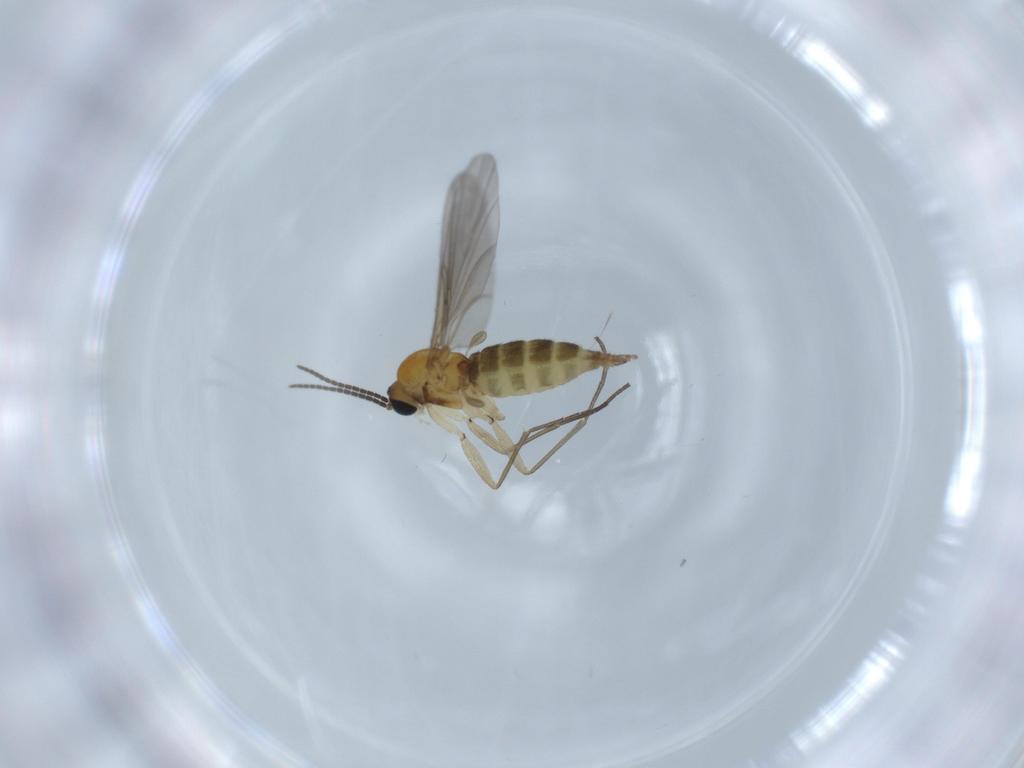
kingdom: Animalia
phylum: Arthropoda
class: Insecta
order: Diptera
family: Sciaridae
